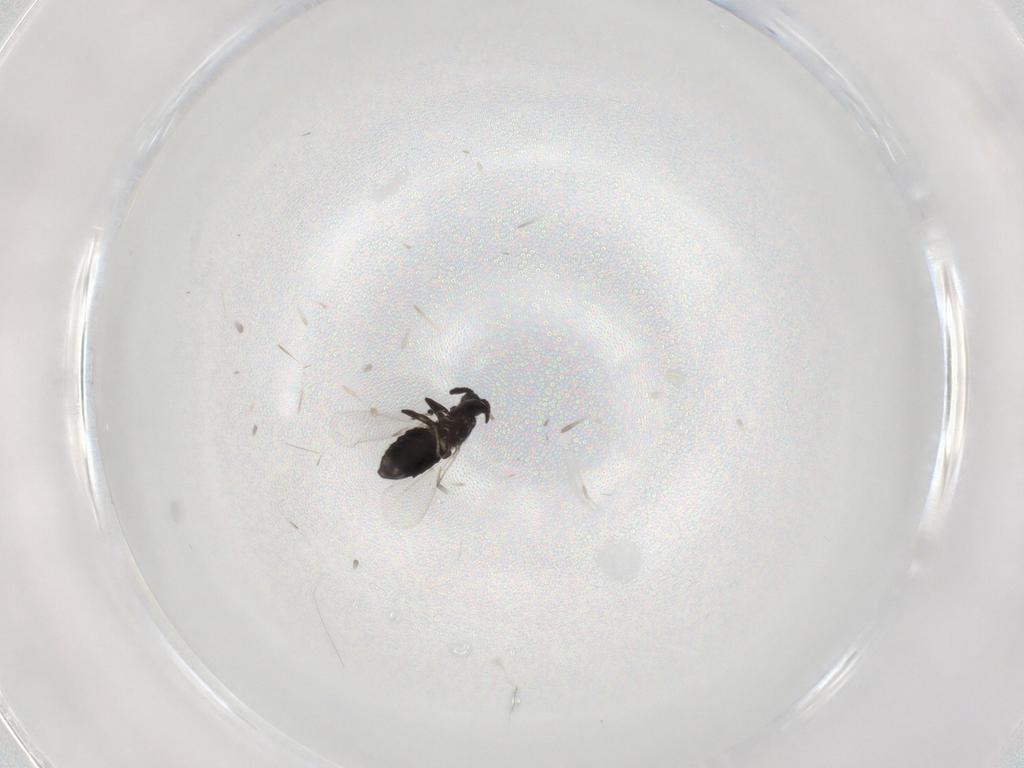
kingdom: Animalia
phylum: Arthropoda
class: Insecta
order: Diptera
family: Scatopsidae
